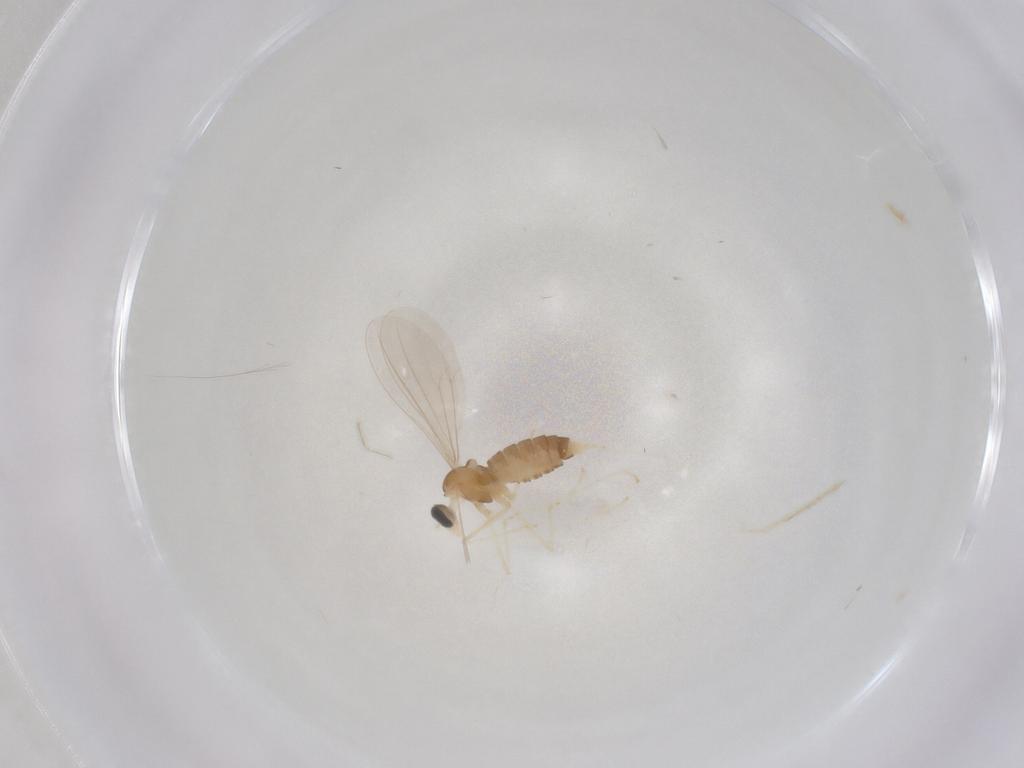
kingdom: Animalia
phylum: Arthropoda
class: Insecta
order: Diptera
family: Cecidomyiidae
